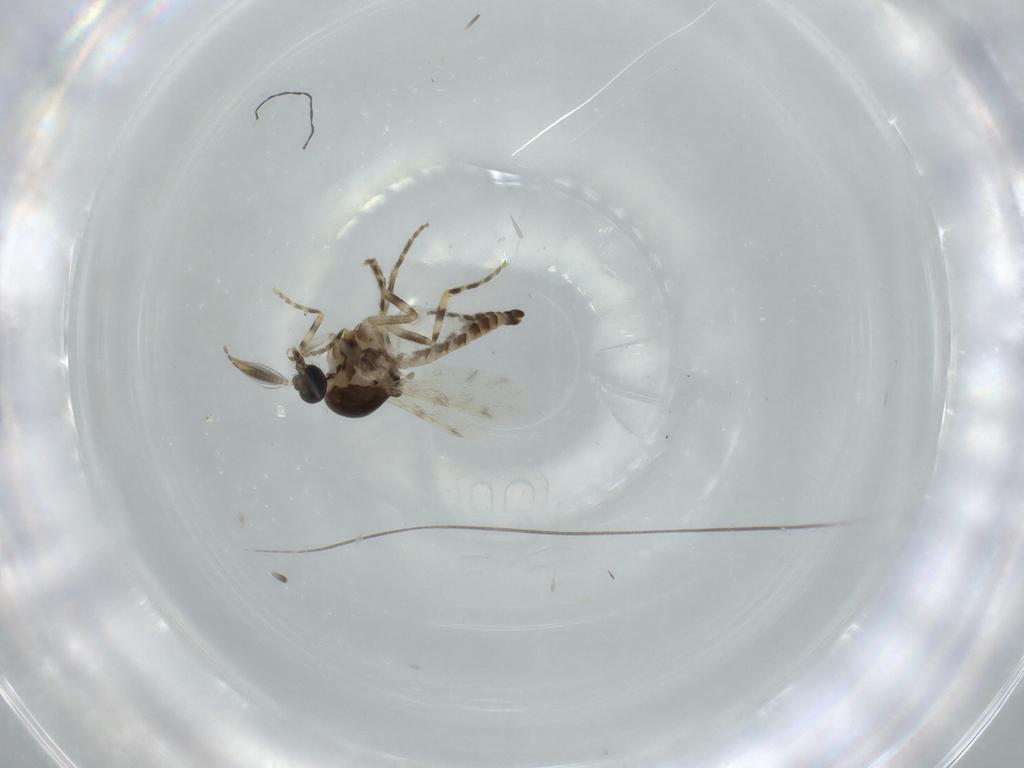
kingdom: Animalia
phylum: Arthropoda
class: Insecta
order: Diptera
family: Ceratopogonidae
